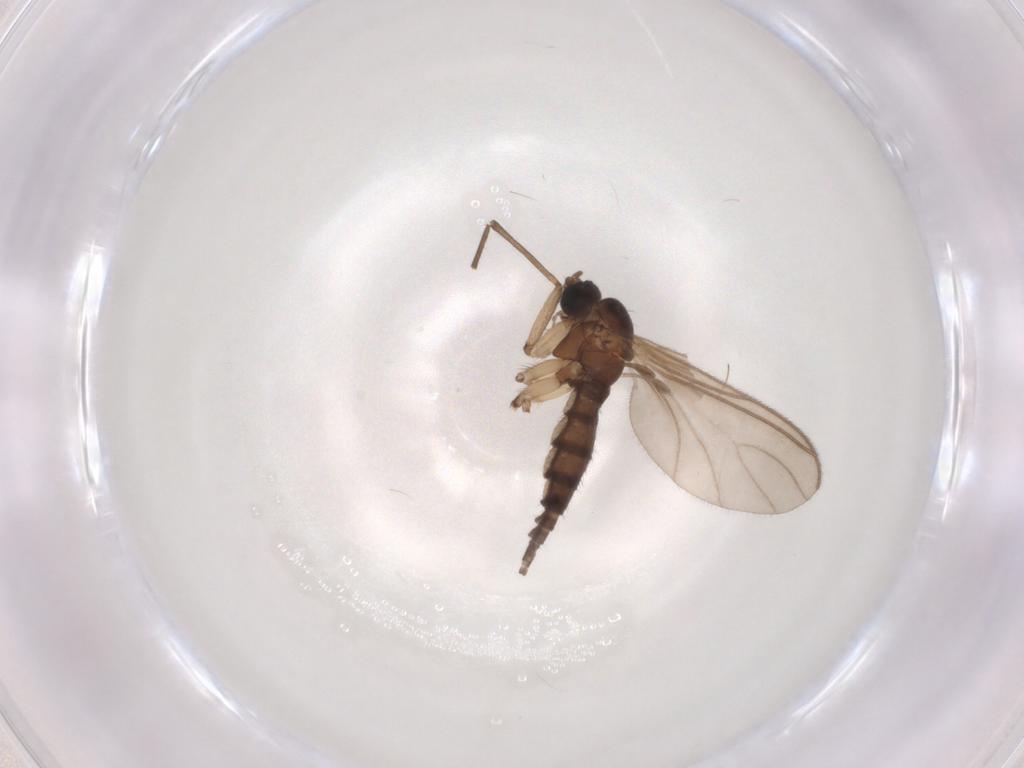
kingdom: Animalia
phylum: Arthropoda
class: Insecta
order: Diptera
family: Sciaridae
